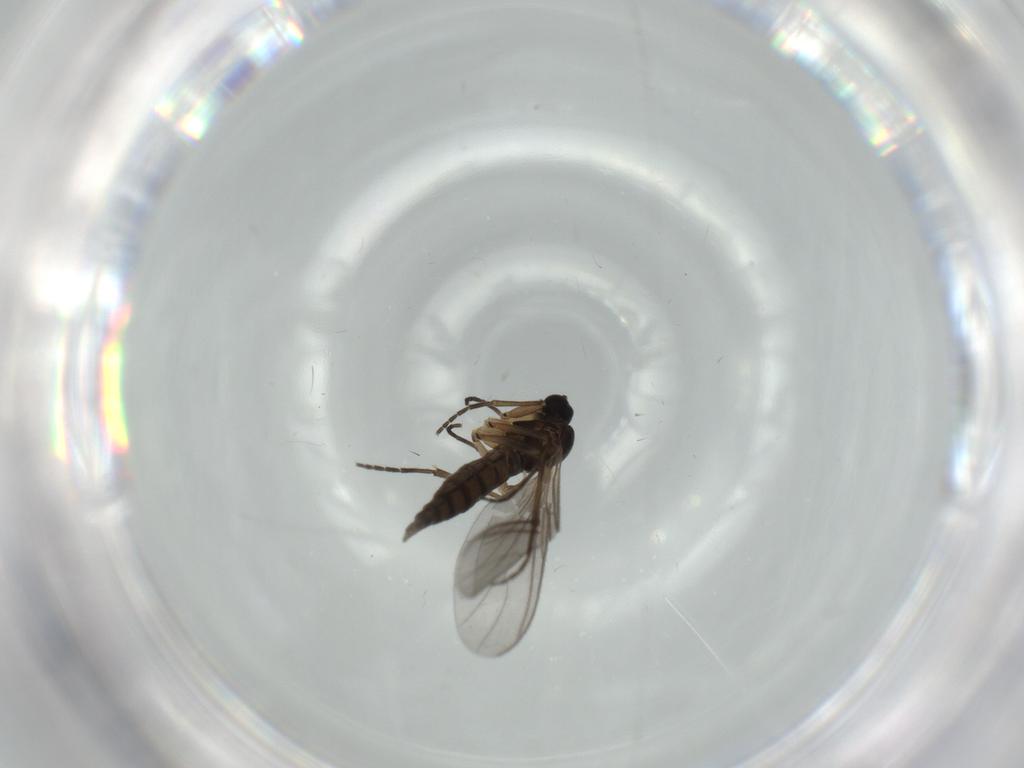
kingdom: Animalia
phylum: Arthropoda
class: Insecta
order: Diptera
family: Sciaridae
